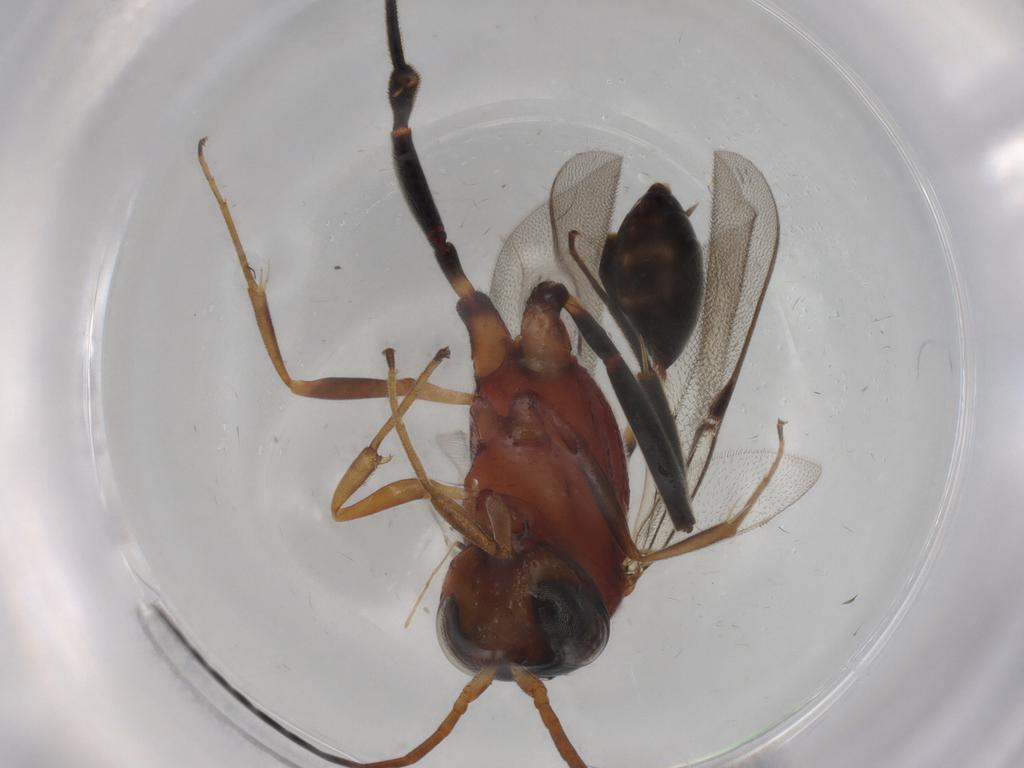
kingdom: Animalia
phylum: Arthropoda
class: Insecta
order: Hymenoptera
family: Evaniidae
